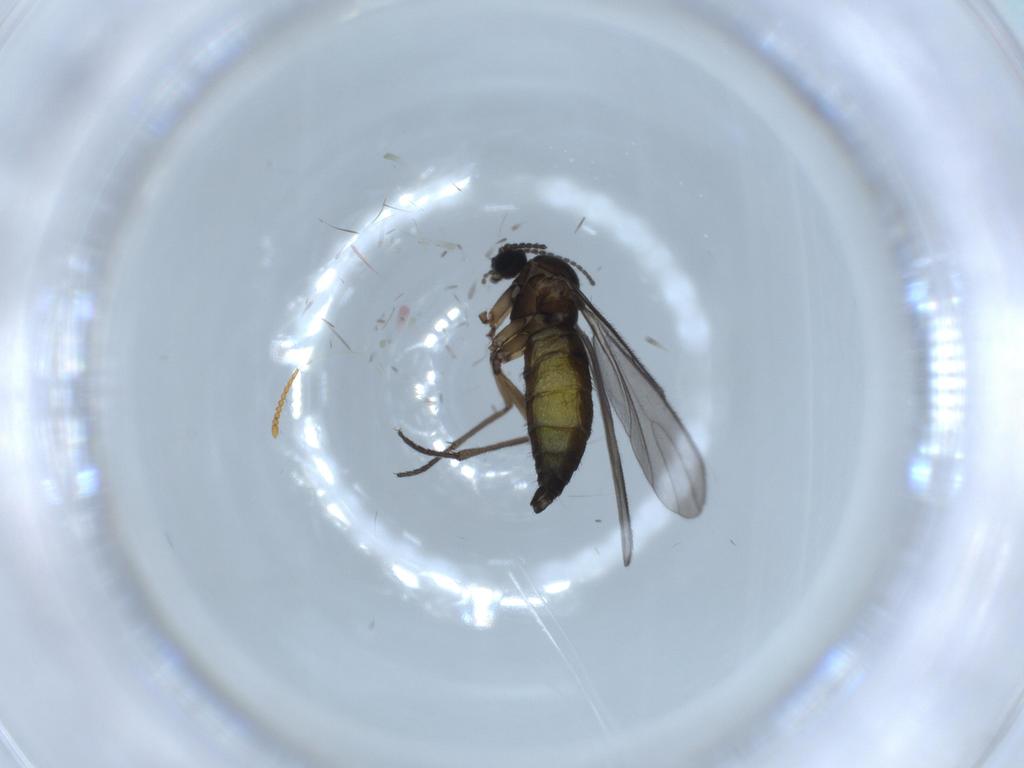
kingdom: Animalia
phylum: Arthropoda
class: Insecta
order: Diptera
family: Sciaridae
